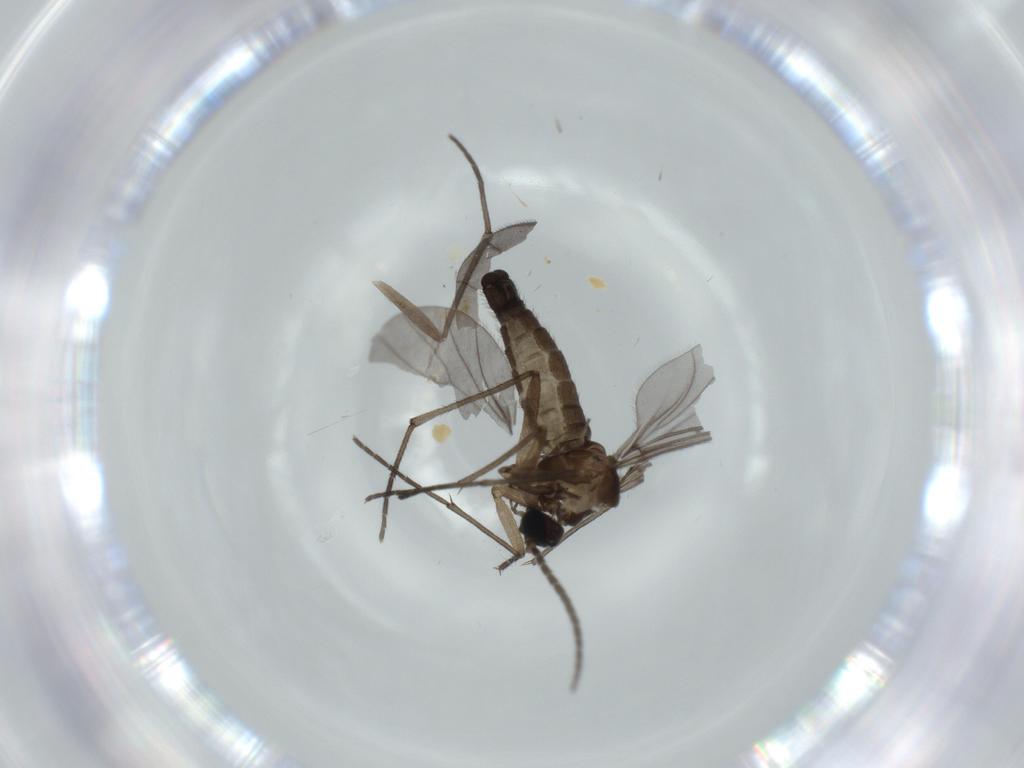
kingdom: Animalia
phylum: Arthropoda
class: Insecta
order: Diptera
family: Sciaridae
